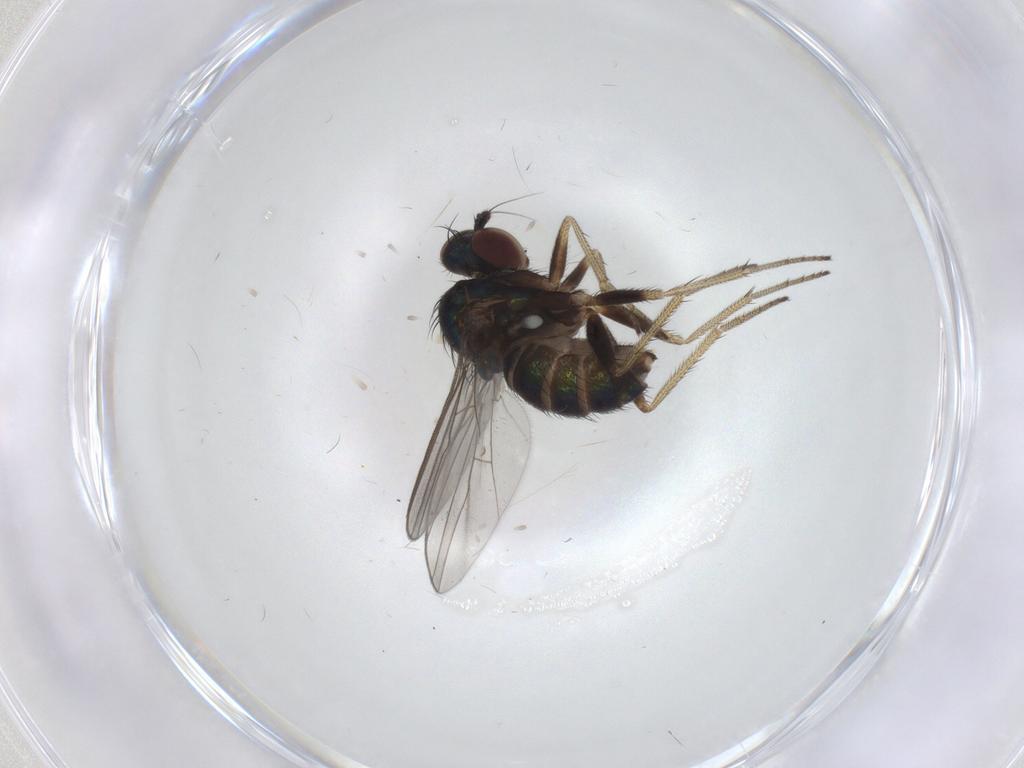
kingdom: Animalia
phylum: Arthropoda
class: Insecta
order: Diptera
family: Dolichopodidae
